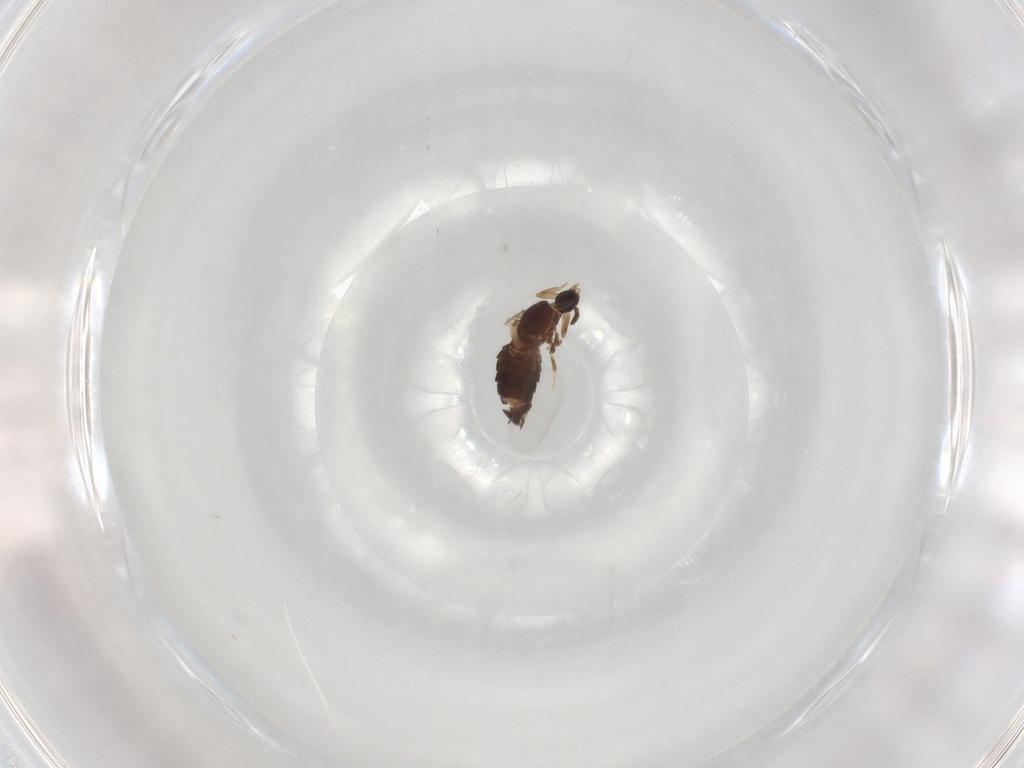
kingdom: Animalia
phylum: Arthropoda
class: Insecta
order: Diptera
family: Scatopsidae
